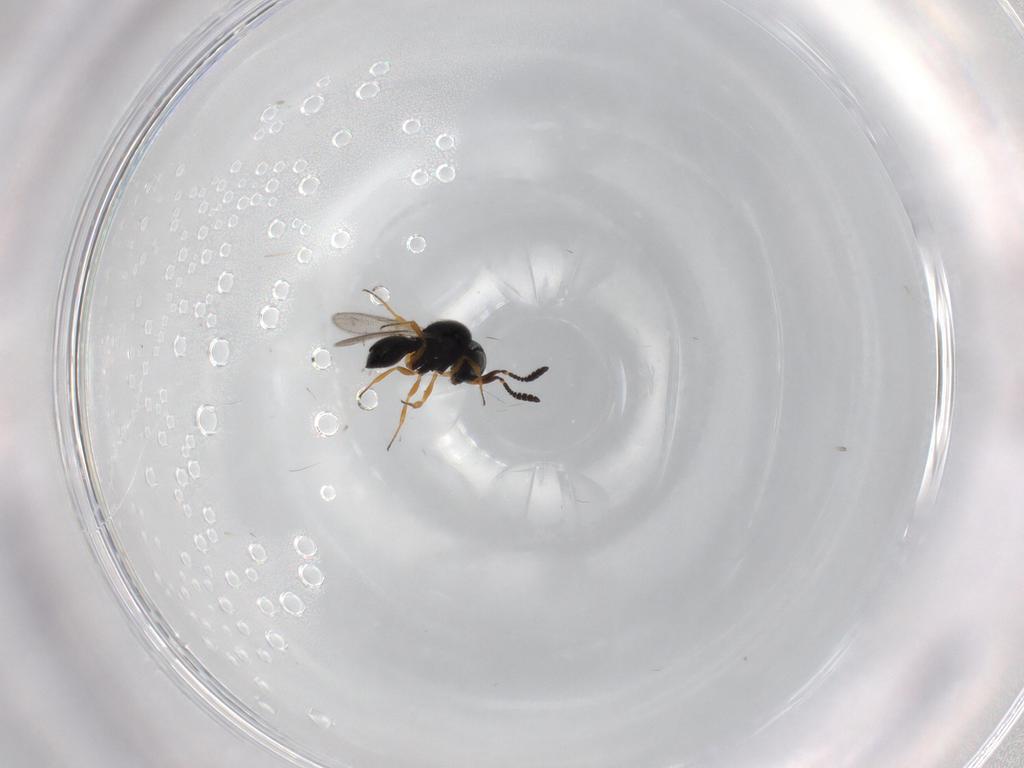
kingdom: Animalia
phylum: Arthropoda
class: Insecta
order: Hymenoptera
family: Scelionidae
